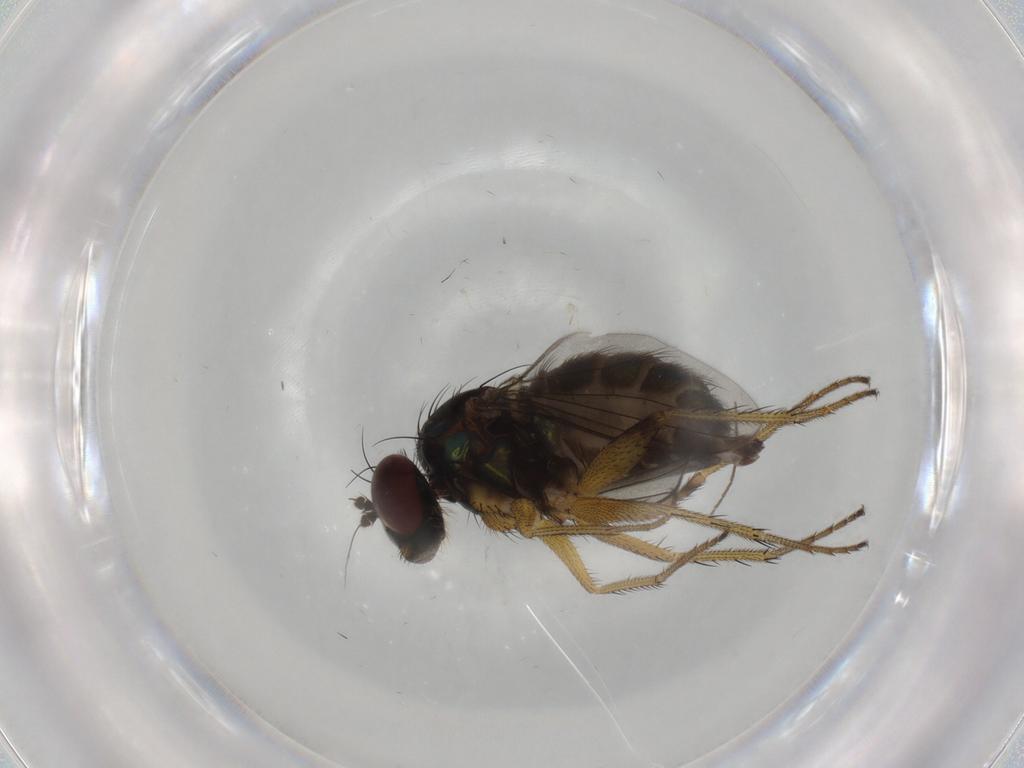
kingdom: Animalia
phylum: Arthropoda
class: Insecta
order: Diptera
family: Dolichopodidae
